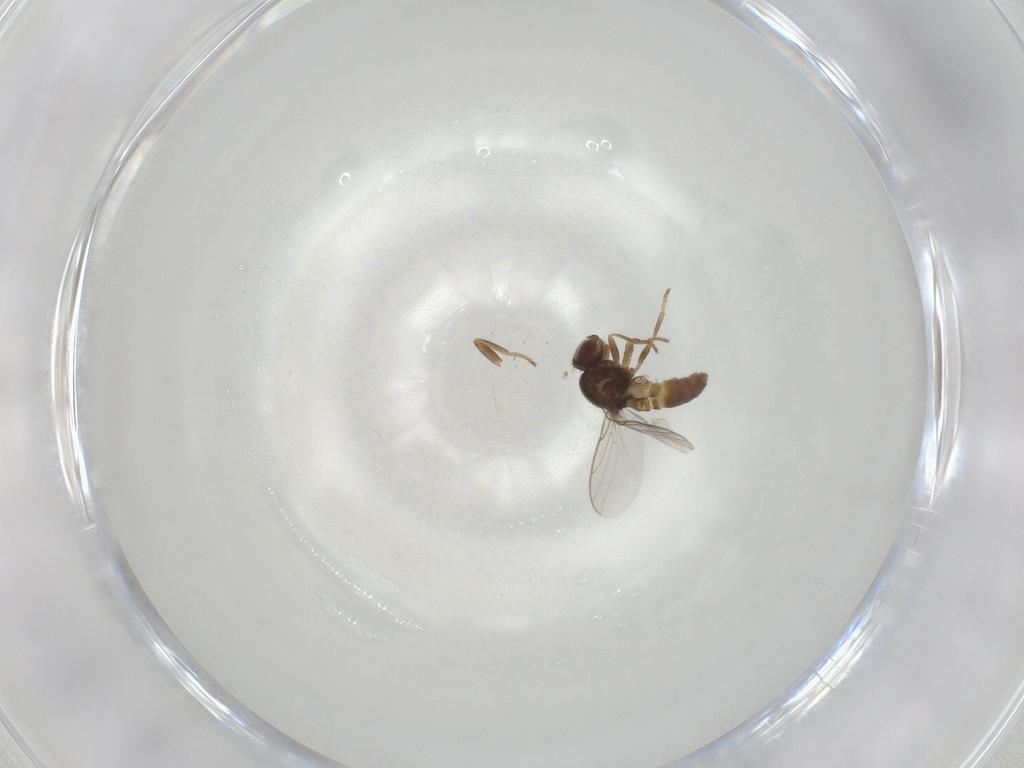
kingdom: Animalia
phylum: Arthropoda
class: Insecta
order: Diptera
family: Chloropidae
